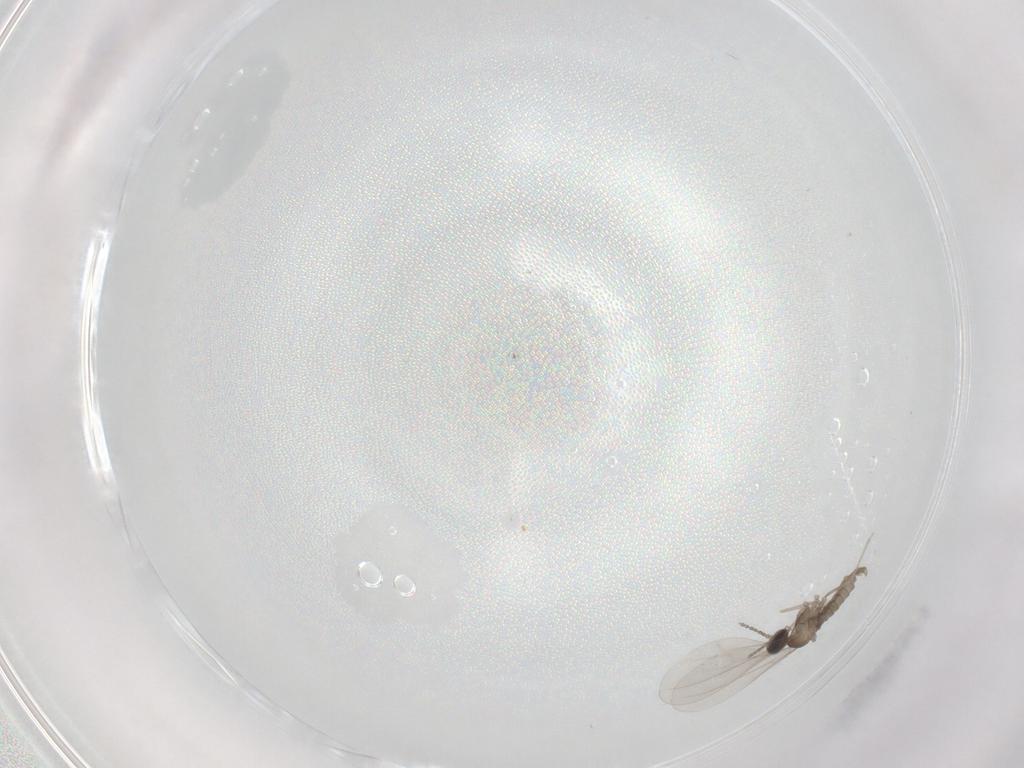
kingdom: Animalia
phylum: Arthropoda
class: Insecta
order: Diptera
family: Cecidomyiidae
